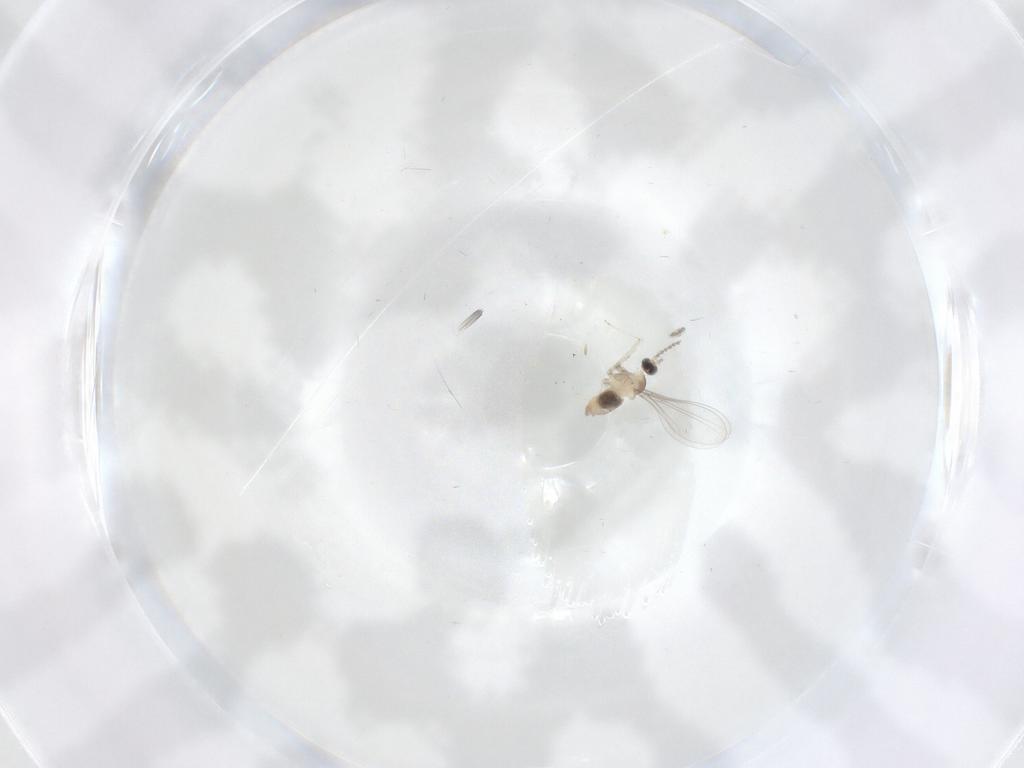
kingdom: Animalia
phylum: Arthropoda
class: Insecta
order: Diptera
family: Cecidomyiidae
